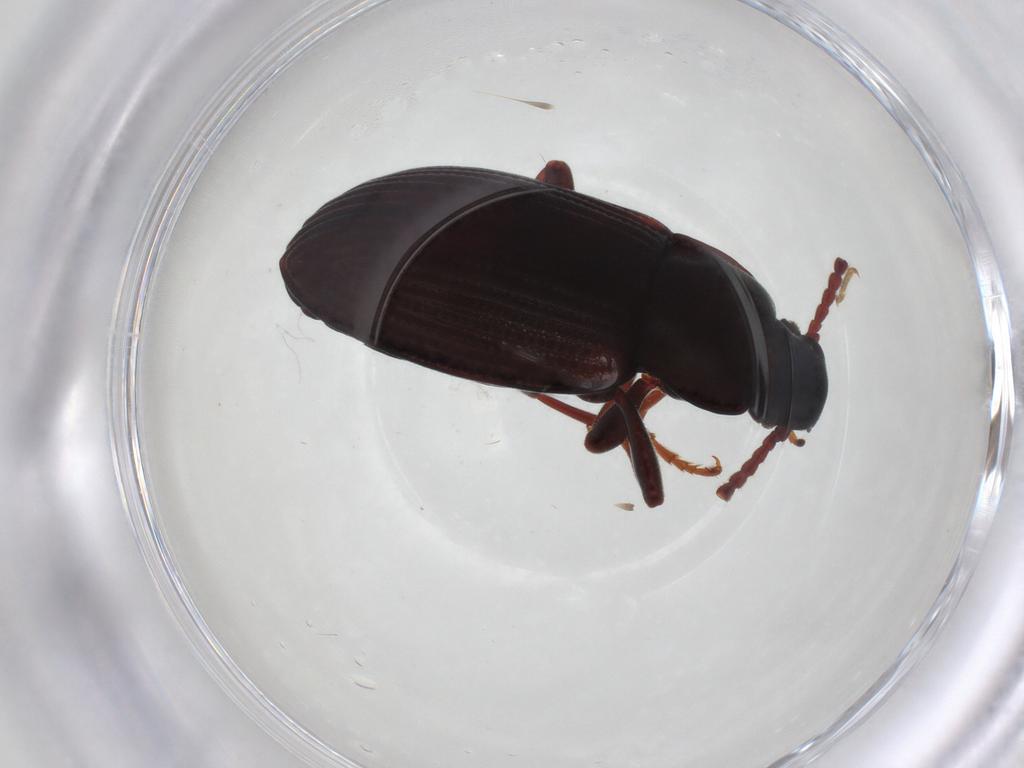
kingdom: Animalia
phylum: Arthropoda
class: Insecta
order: Coleoptera
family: Tenebrionidae
